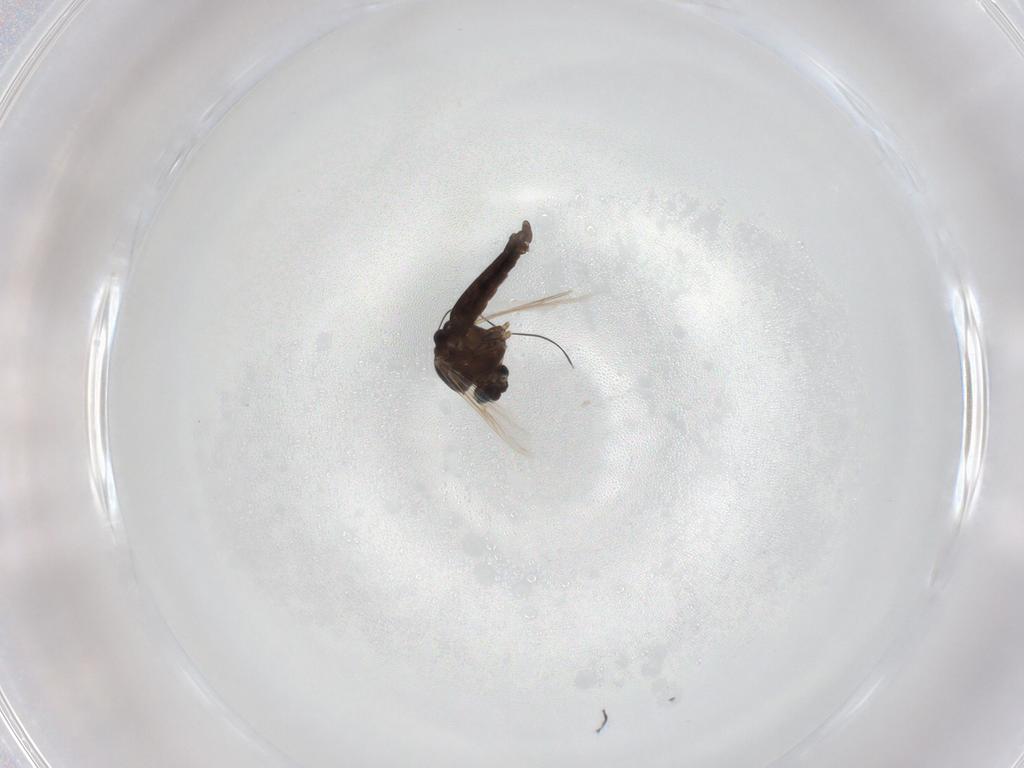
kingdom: Animalia
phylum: Arthropoda
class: Insecta
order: Diptera
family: Chironomidae
